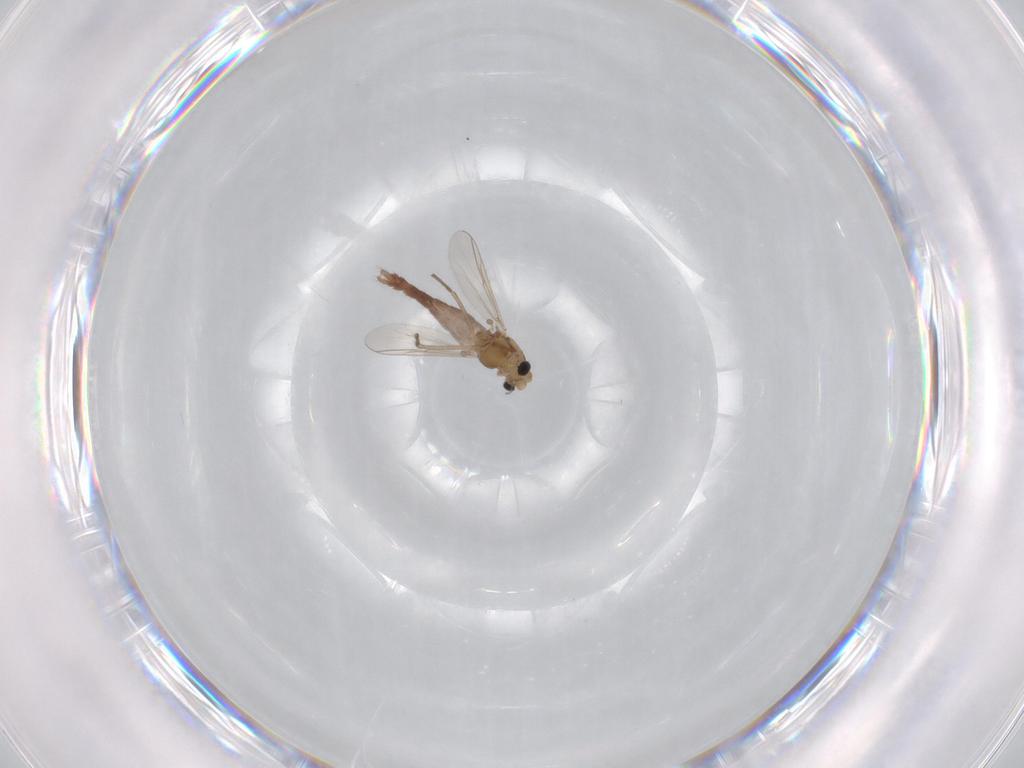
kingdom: Animalia
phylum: Arthropoda
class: Insecta
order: Diptera
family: Chironomidae
